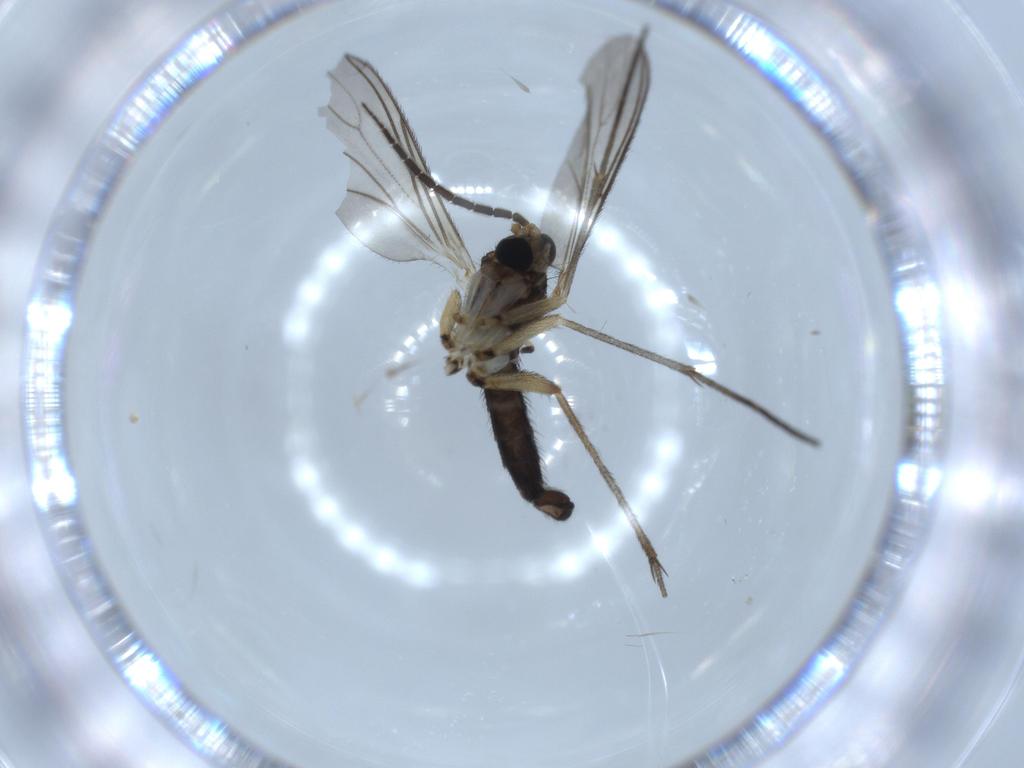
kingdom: Animalia
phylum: Arthropoda
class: Insecta
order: Diptera
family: Cecidomyiidae
